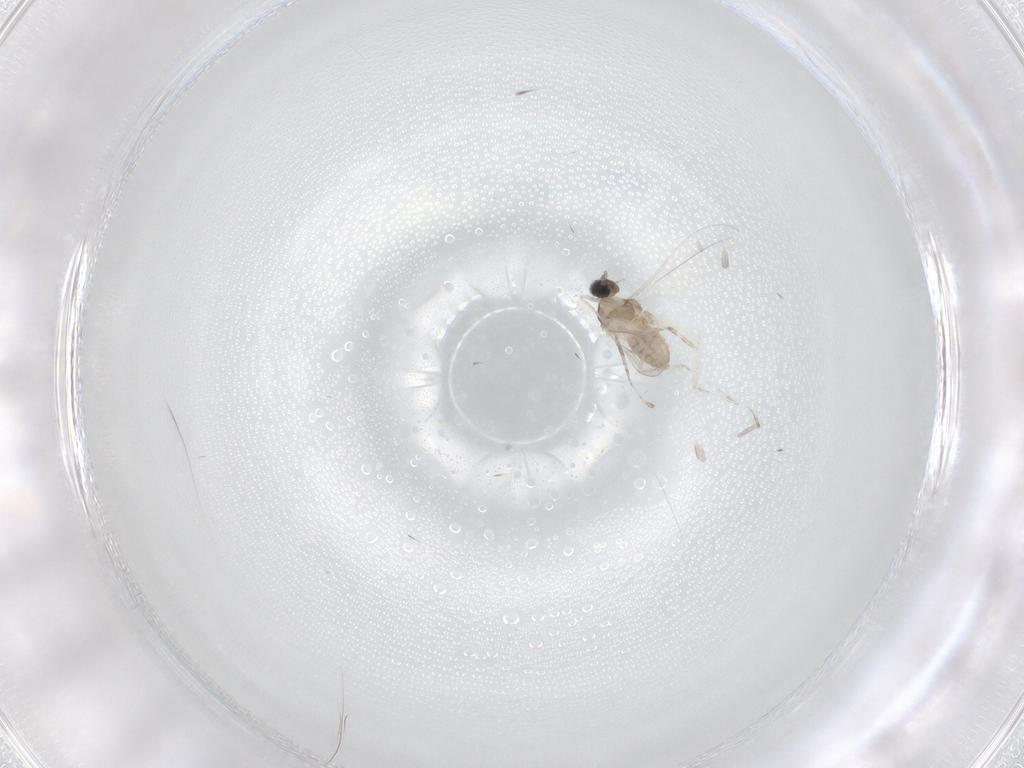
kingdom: Animalia
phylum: Arthropoda
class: Insecta
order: Diptera
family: Cecidomyiidae
